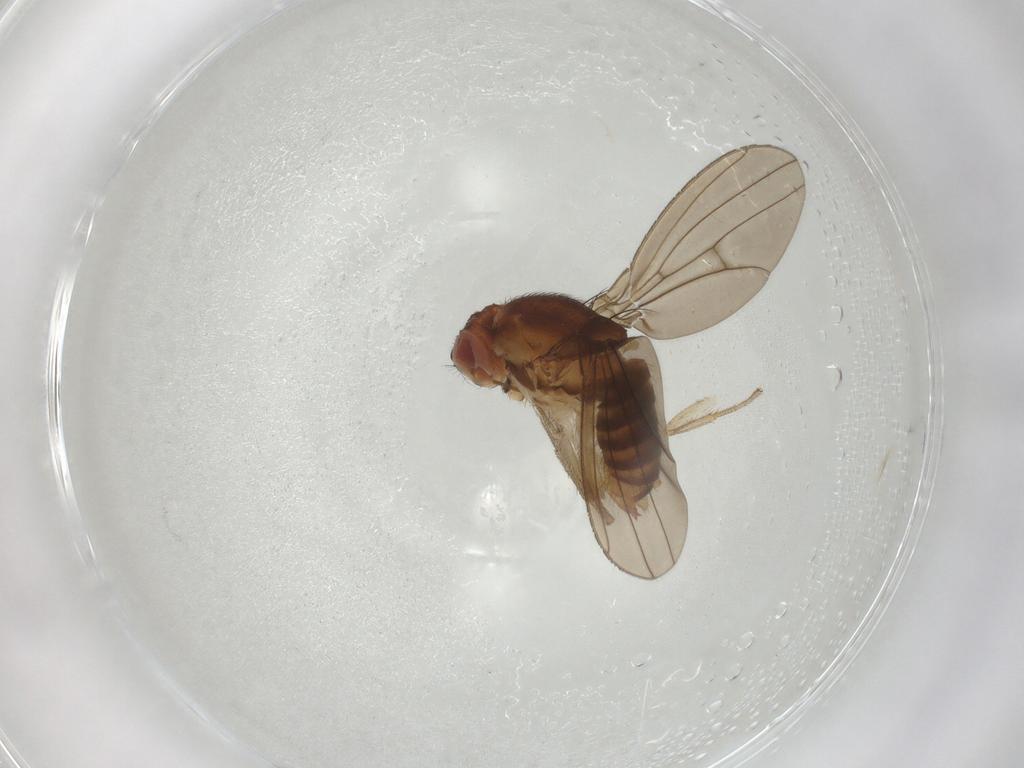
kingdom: Animalia
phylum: Arthropoda
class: Insecta
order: Diptera
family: Muscidae
